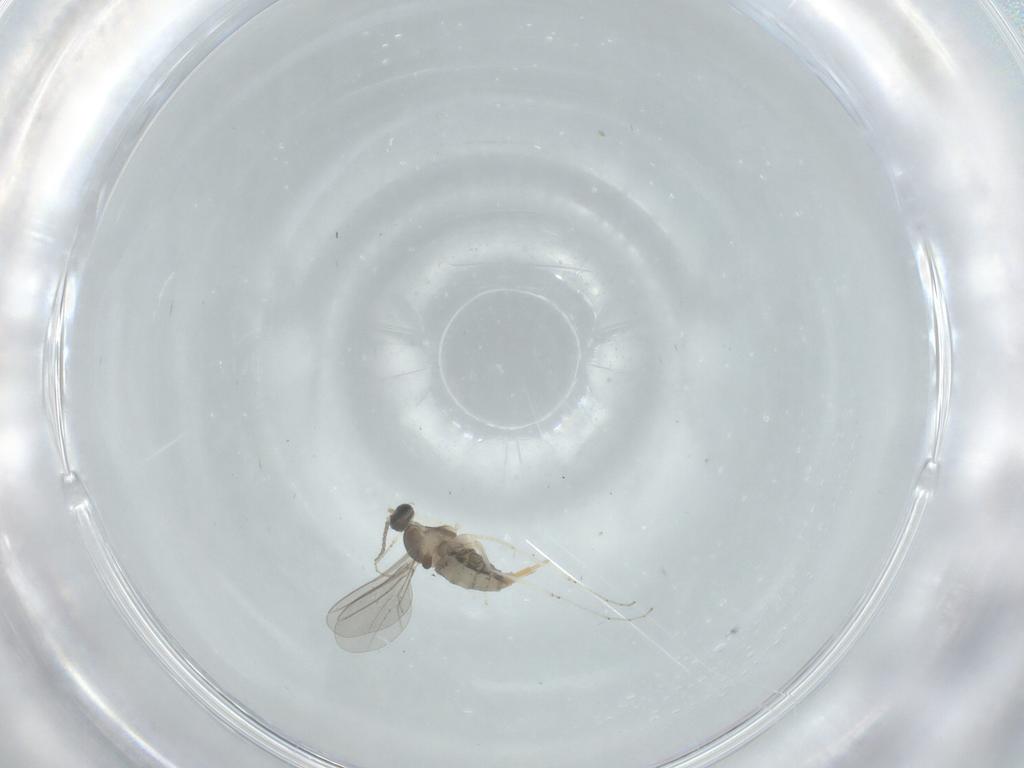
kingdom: Animalia
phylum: Arthropoda
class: Insecta
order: Diptera
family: Cecidomyiidae
